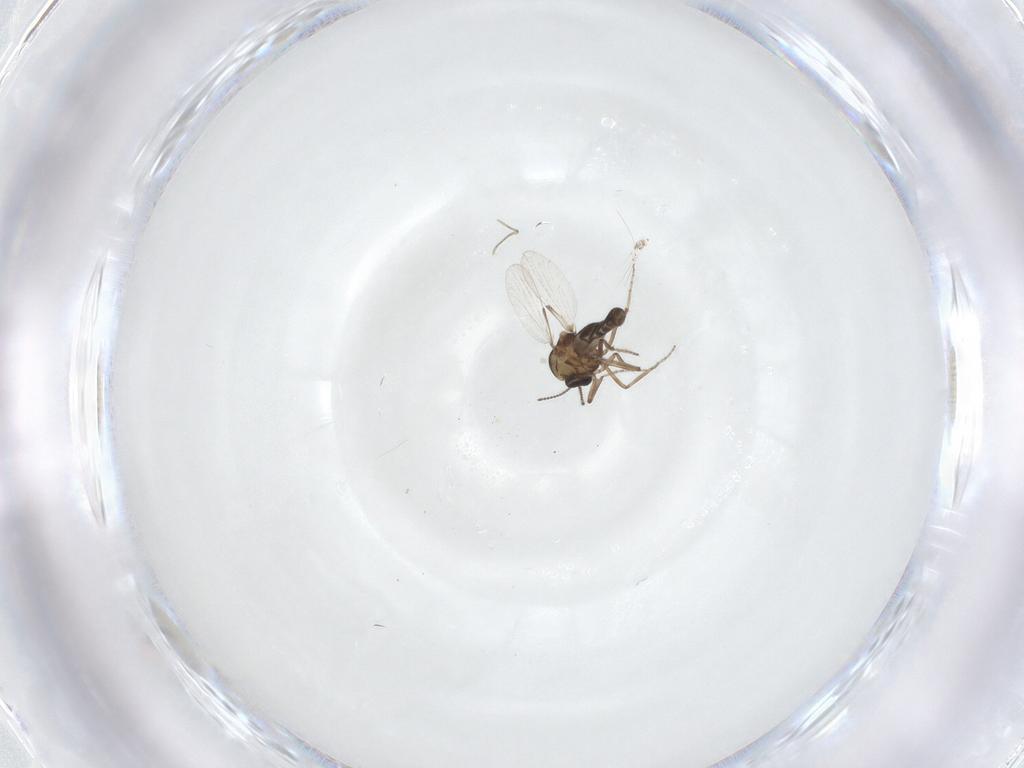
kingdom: Animalia
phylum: Arthropoda
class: Insecta
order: Diptera
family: Ceratopogonidae
